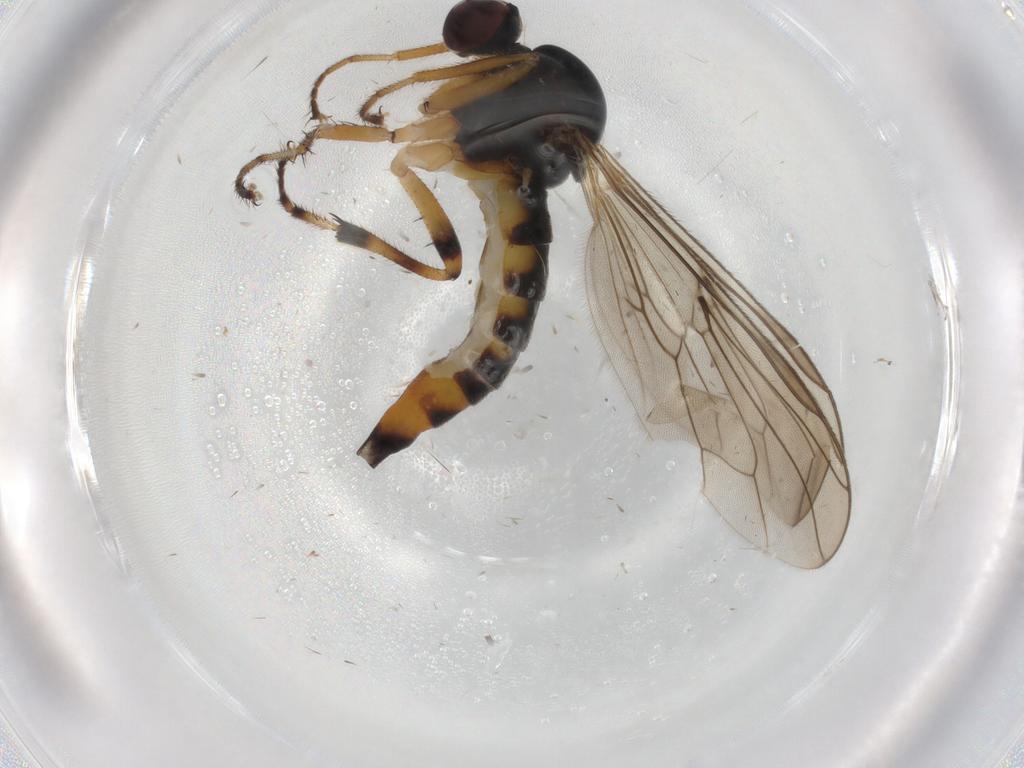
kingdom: Animalia
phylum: Arthropoda
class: Insecta
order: Diptera
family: Hybotidae
